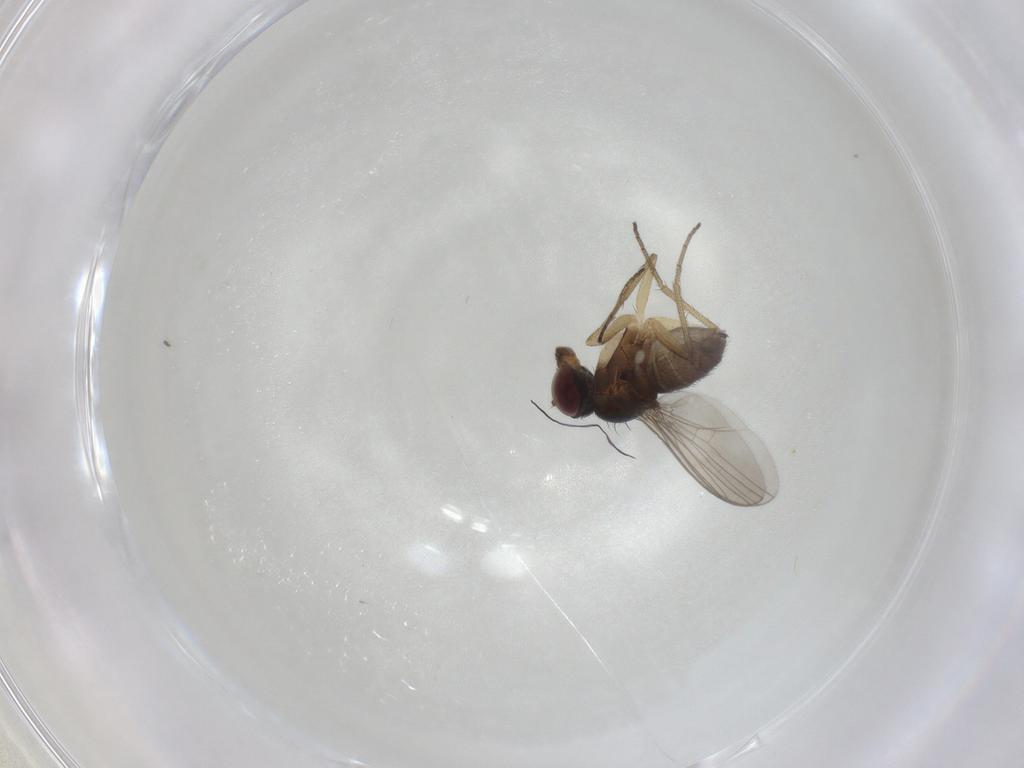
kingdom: Animalia
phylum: Arthropoda
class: Insecta
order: Diptera
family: Dolichopodidae
